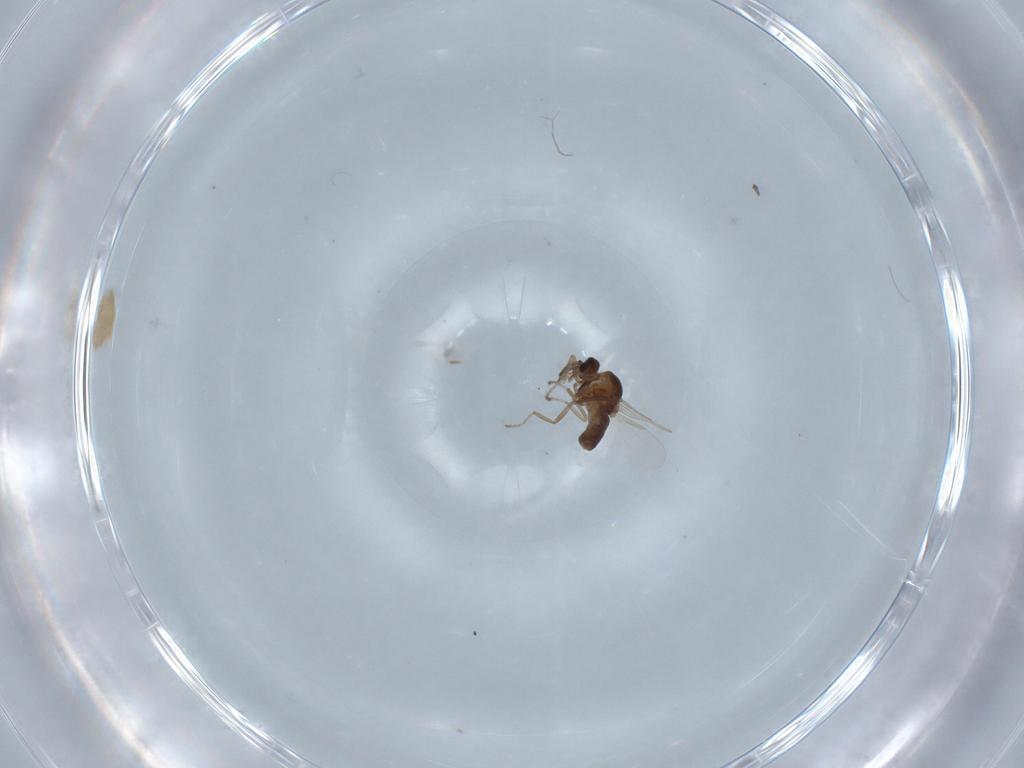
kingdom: Animalia
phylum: Arthropoda
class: Insecta
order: Diptera
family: Ceratopogonidae
